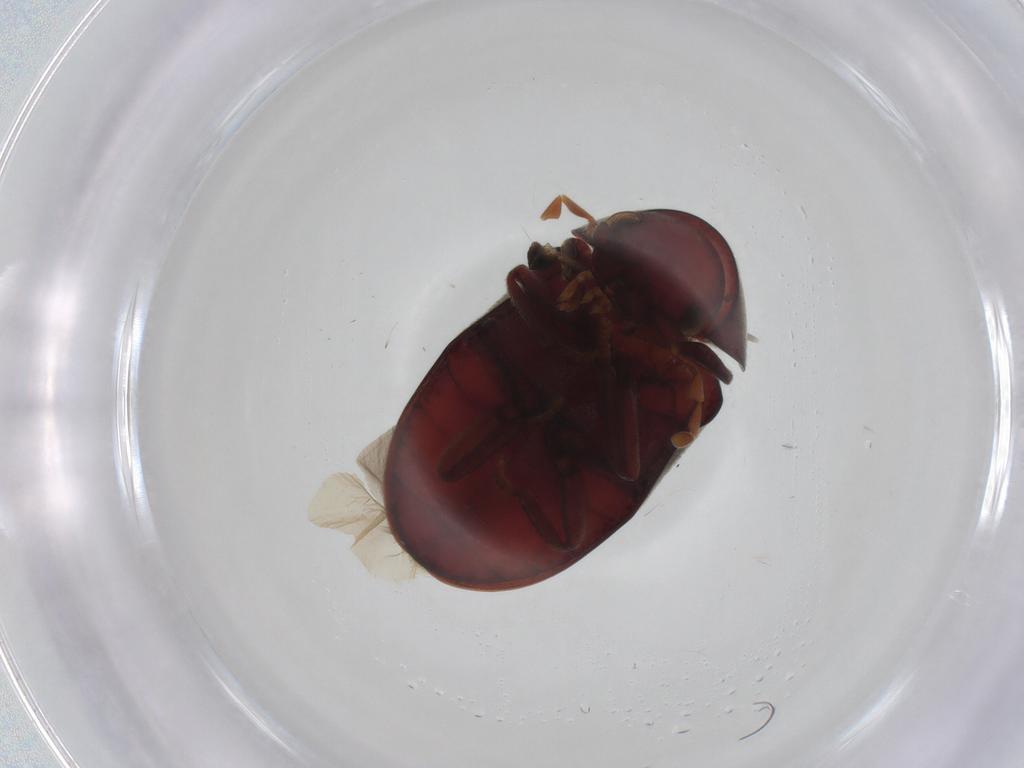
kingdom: Animalia
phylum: Arthropoda
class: Insecta
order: Coleoptera
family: Ptinidae
